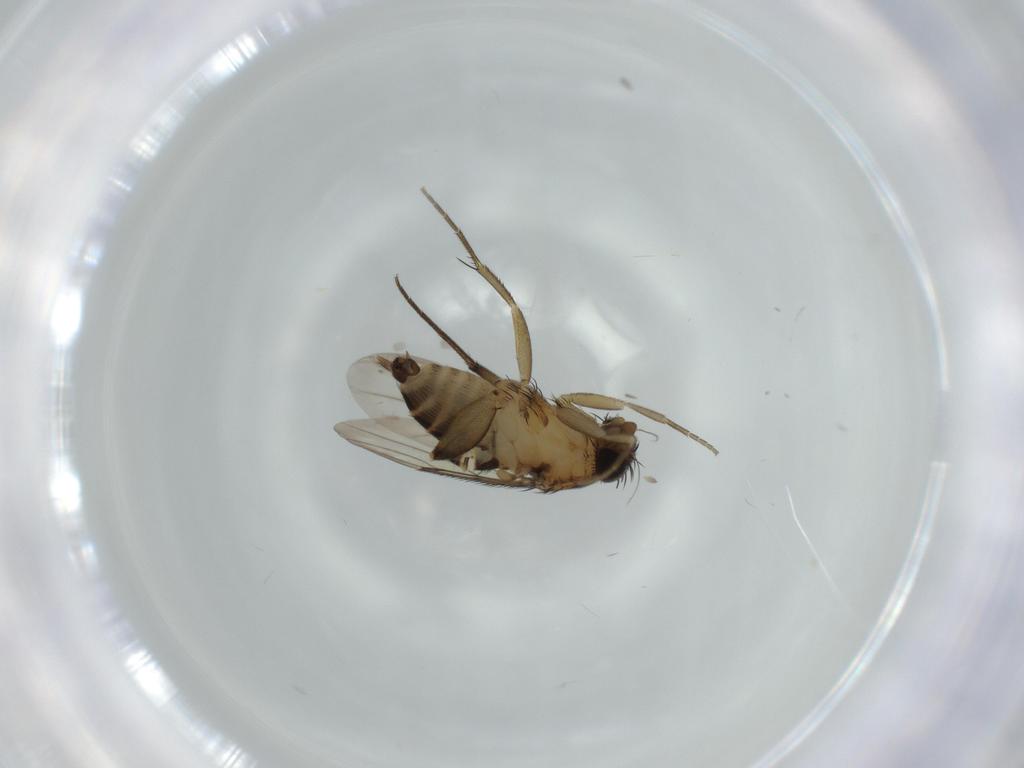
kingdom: Animalia
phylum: Arthropoda
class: Insecta
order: Diptera
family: Phoridae
